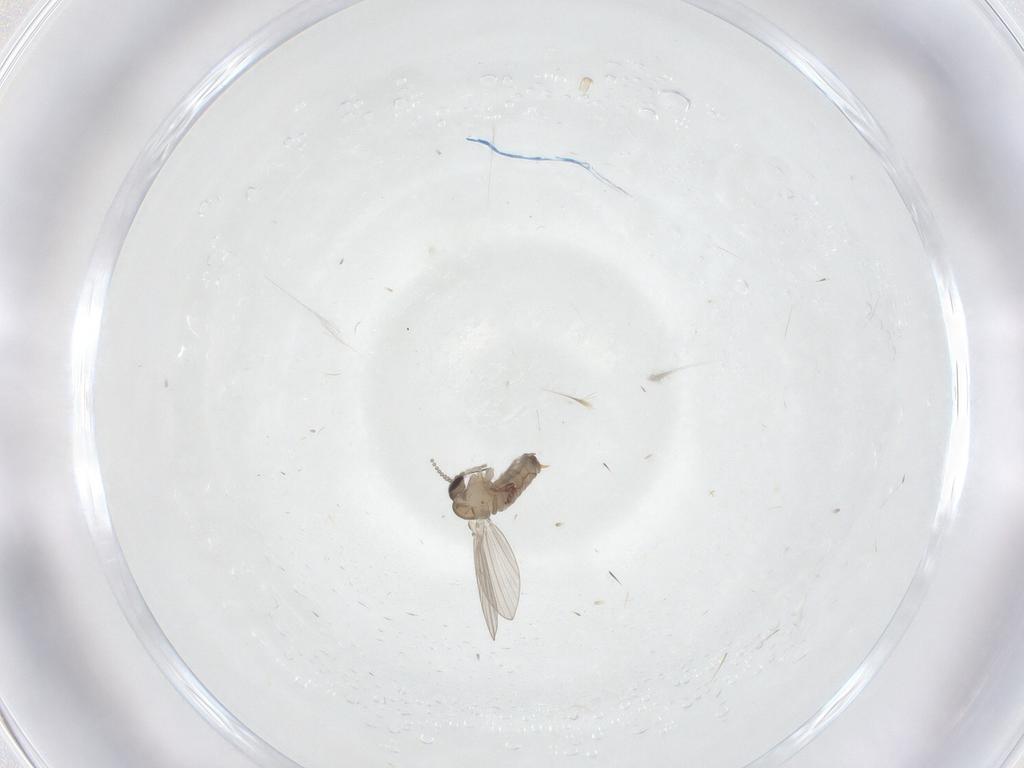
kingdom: Animalia
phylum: Arthropoda
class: Insecta
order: Diptera
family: Psychodidae
